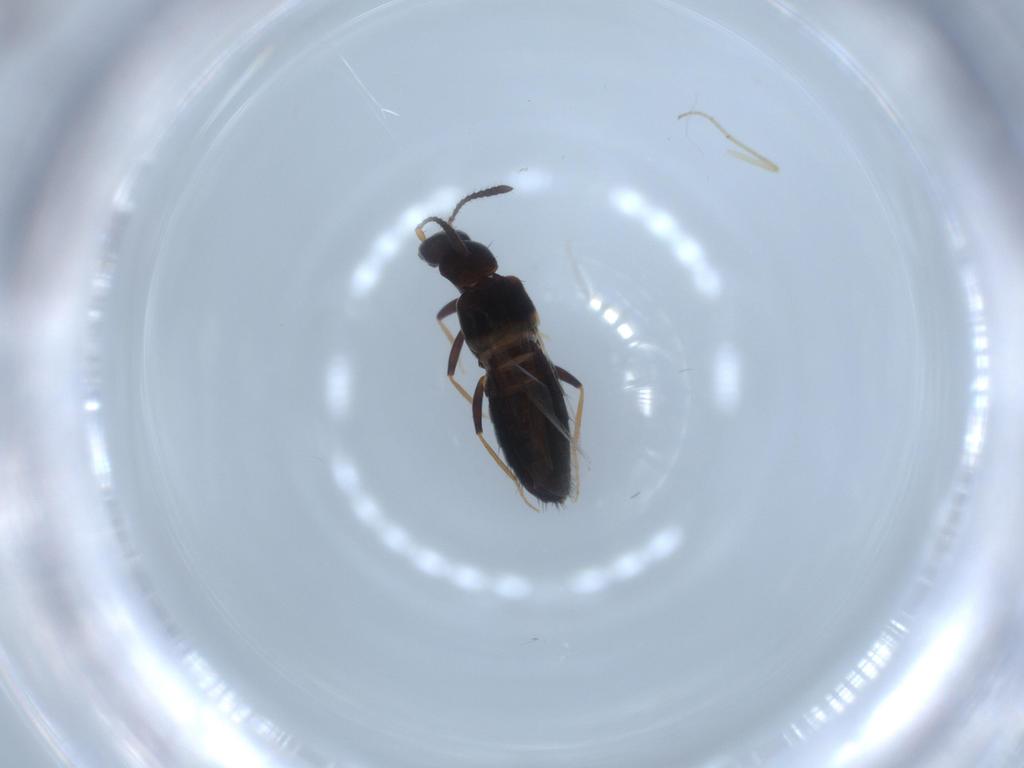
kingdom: Animalia
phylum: Arthropoda
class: Insecta
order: Coleoptera
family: Staphylinidae
